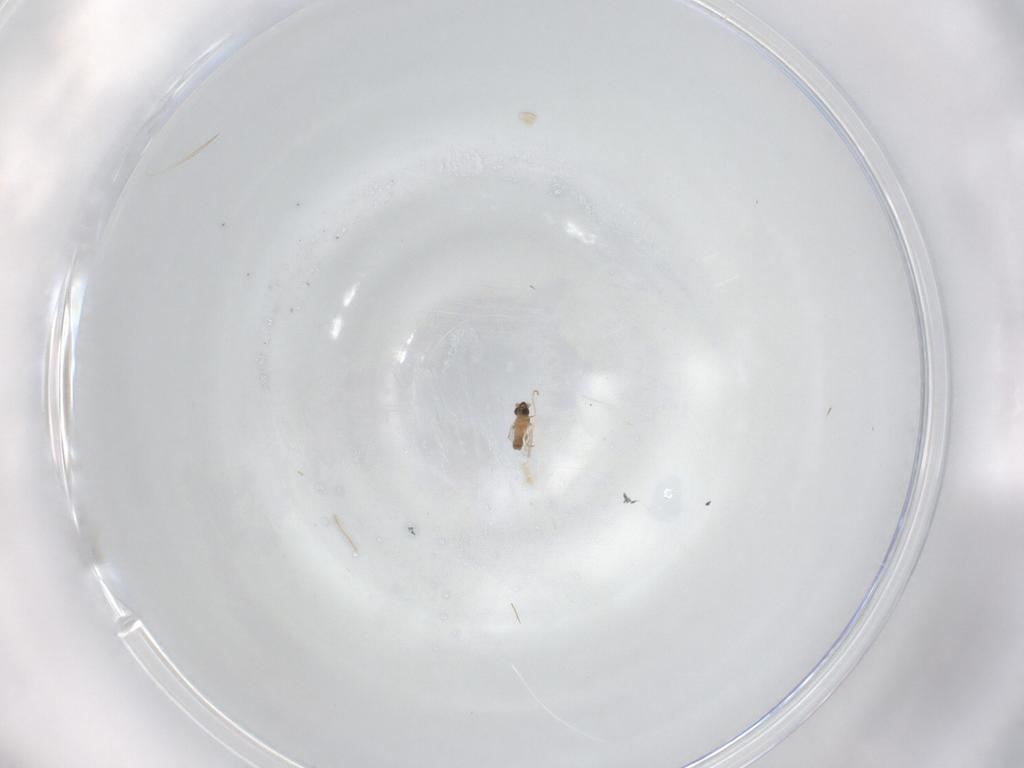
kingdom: Animalia
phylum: Arthropoda
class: Insecta
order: Diptera
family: Cecidomyiidae
